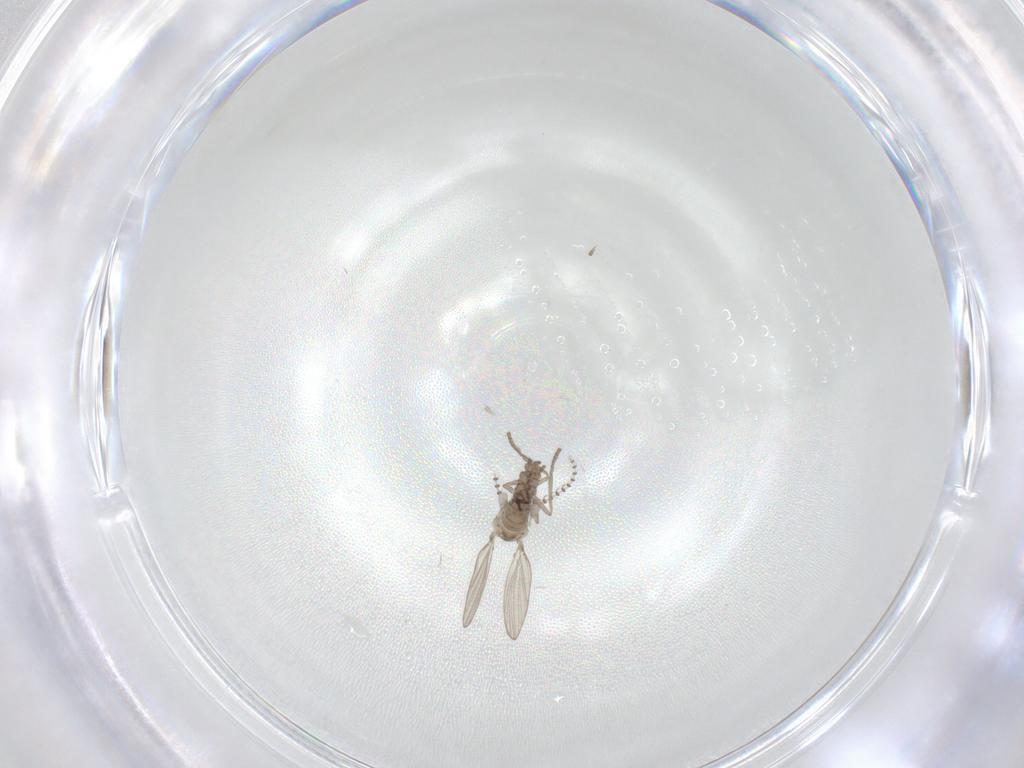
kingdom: Animalia
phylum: Arthropoda
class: Insecta
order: Diptera
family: Psychodidae
